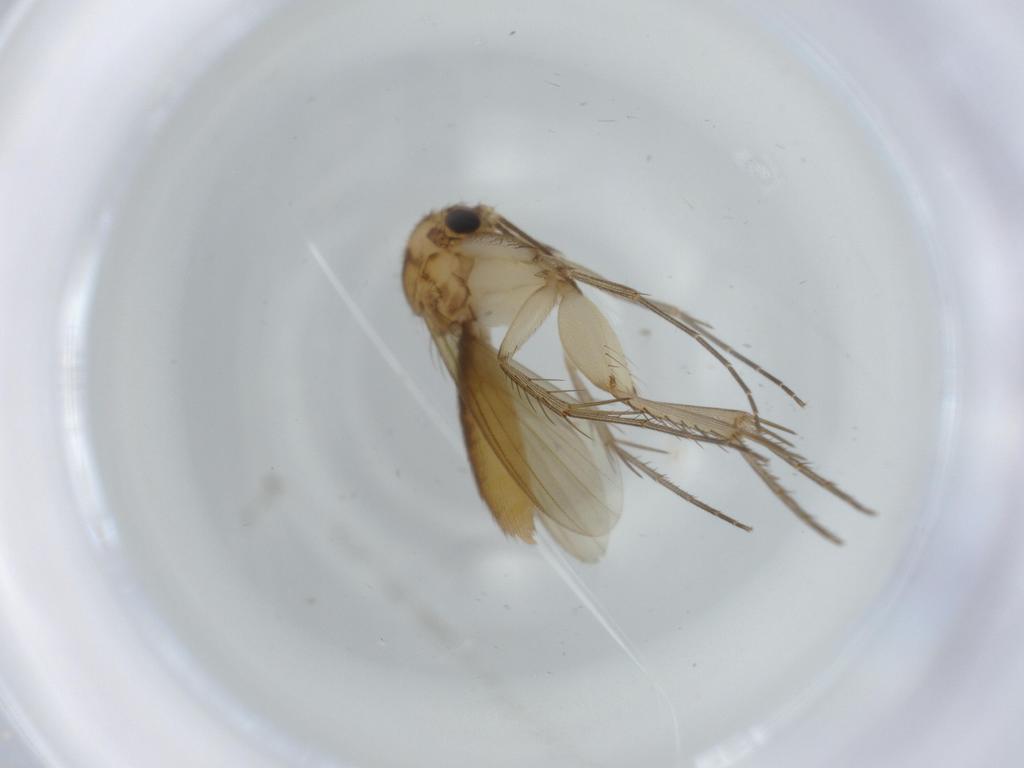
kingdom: Animalia
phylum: Arthropoda
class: Insecta
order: Diptera
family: Mycetophilidae
